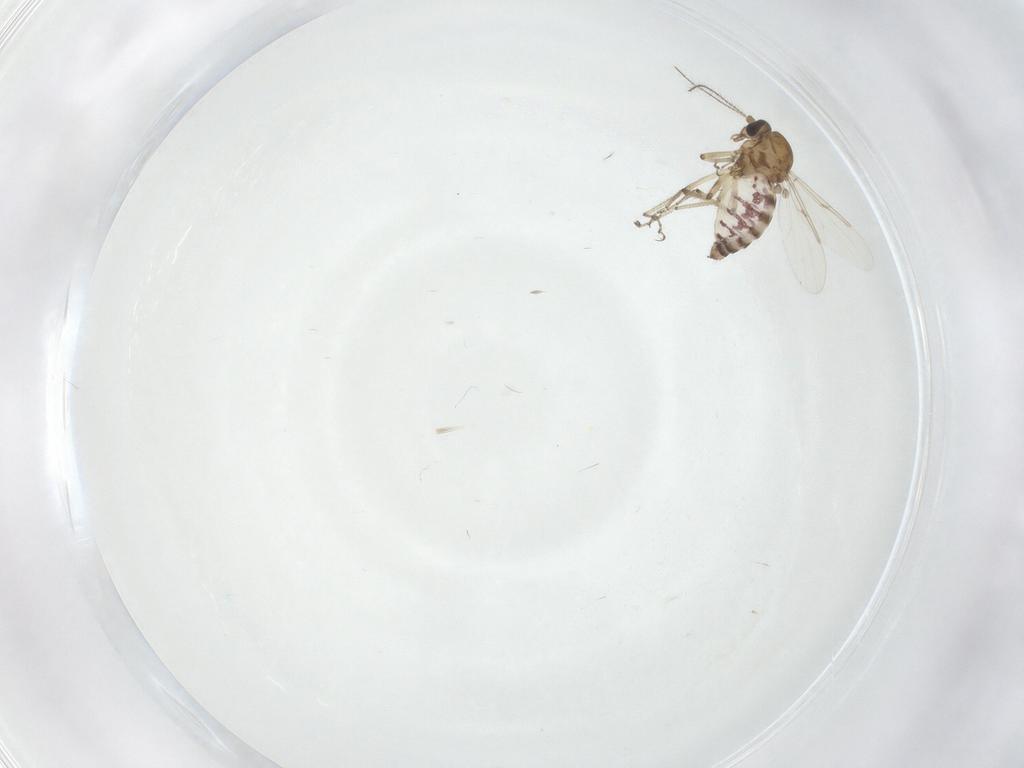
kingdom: Animalia
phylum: Arthropoda
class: Insecta
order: Diptera
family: Ceratopogonidae
